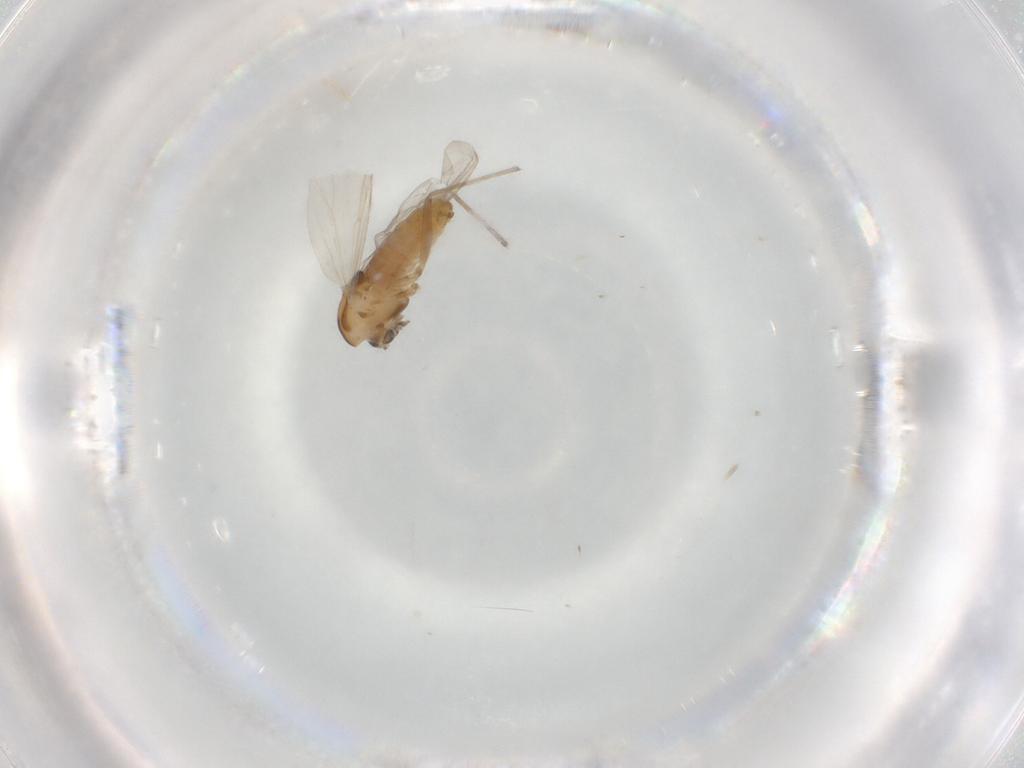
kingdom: Animalia
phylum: Arthropoda
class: Insecta
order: Diptera
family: Chironomidae
